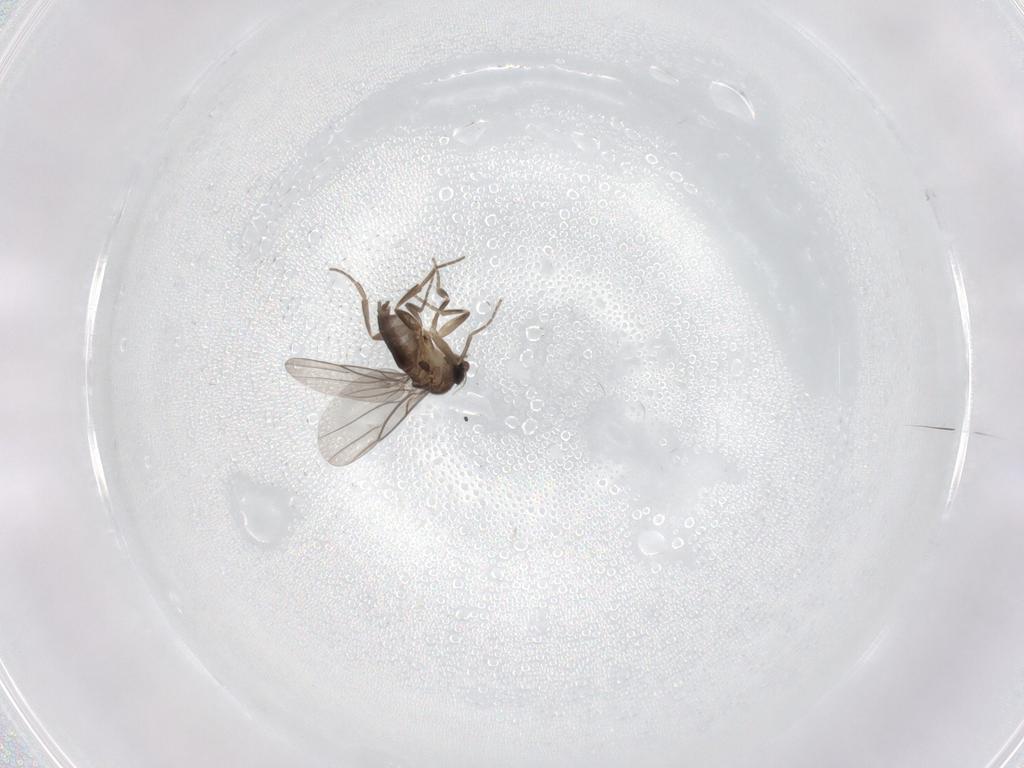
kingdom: Animalia
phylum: Arthropoda
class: Insecta
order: Diptera
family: Phoridae
